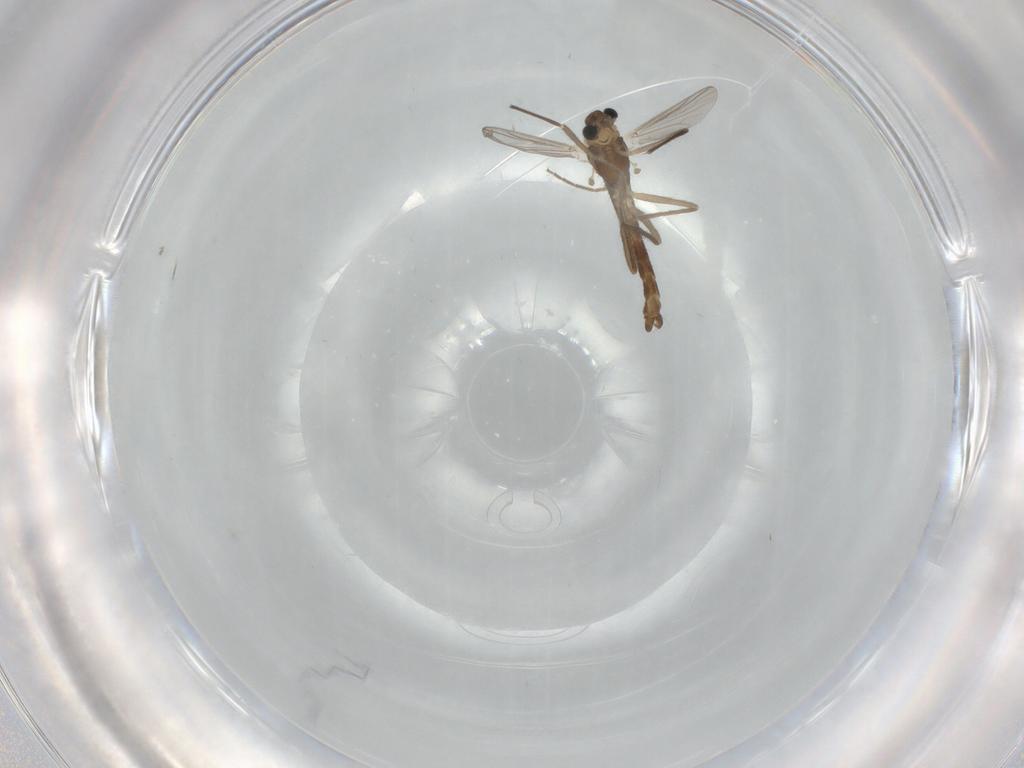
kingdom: Animalia
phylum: Arthropoda
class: Insecta
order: Diptera
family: Chironomidae
